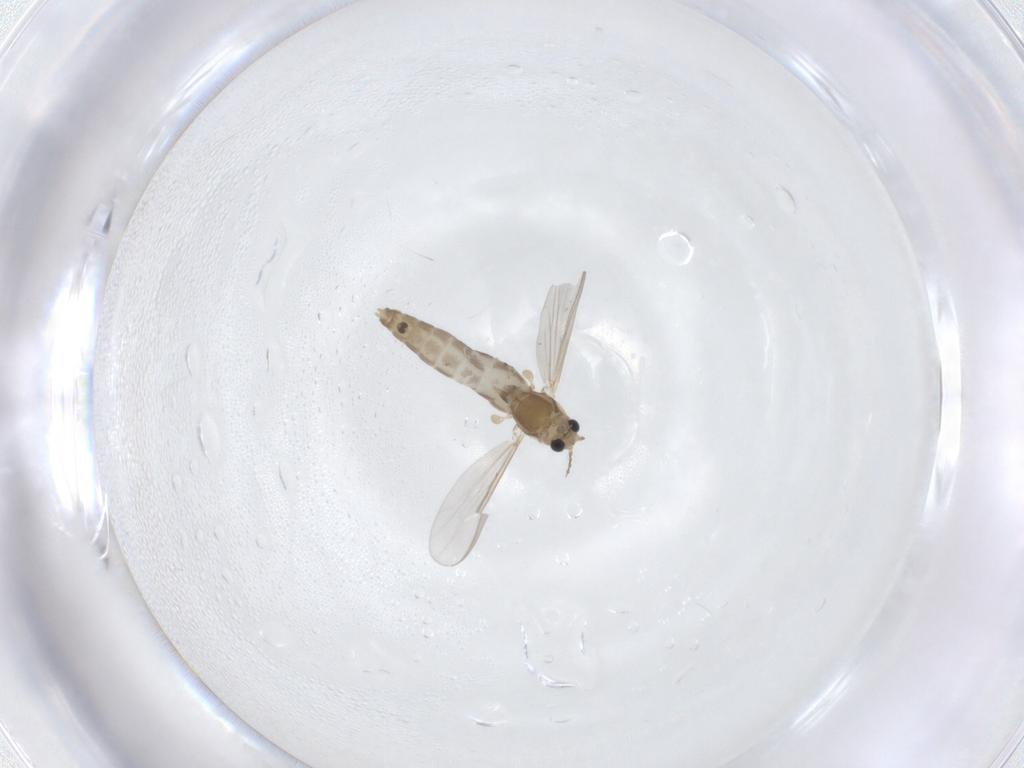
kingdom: Animalia
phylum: Arthropoda
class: Insecta
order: Diptera
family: Chironomidae
